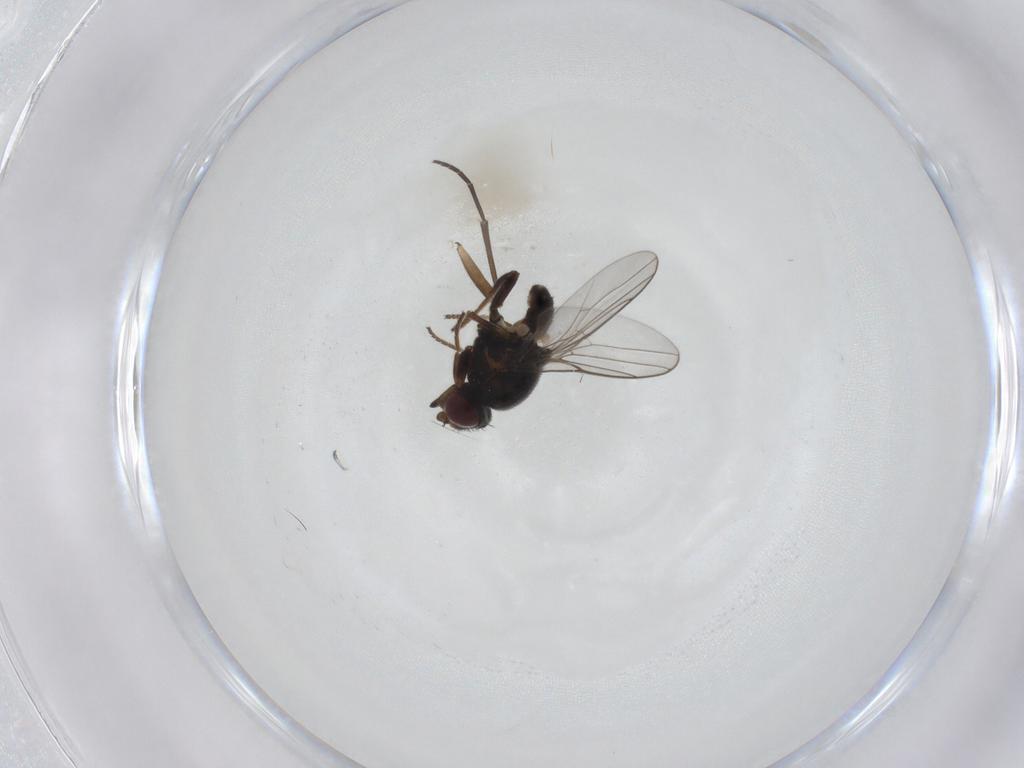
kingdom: Animalia
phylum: Arthropoda
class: Insecta
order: Diptera
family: Chloropidae
